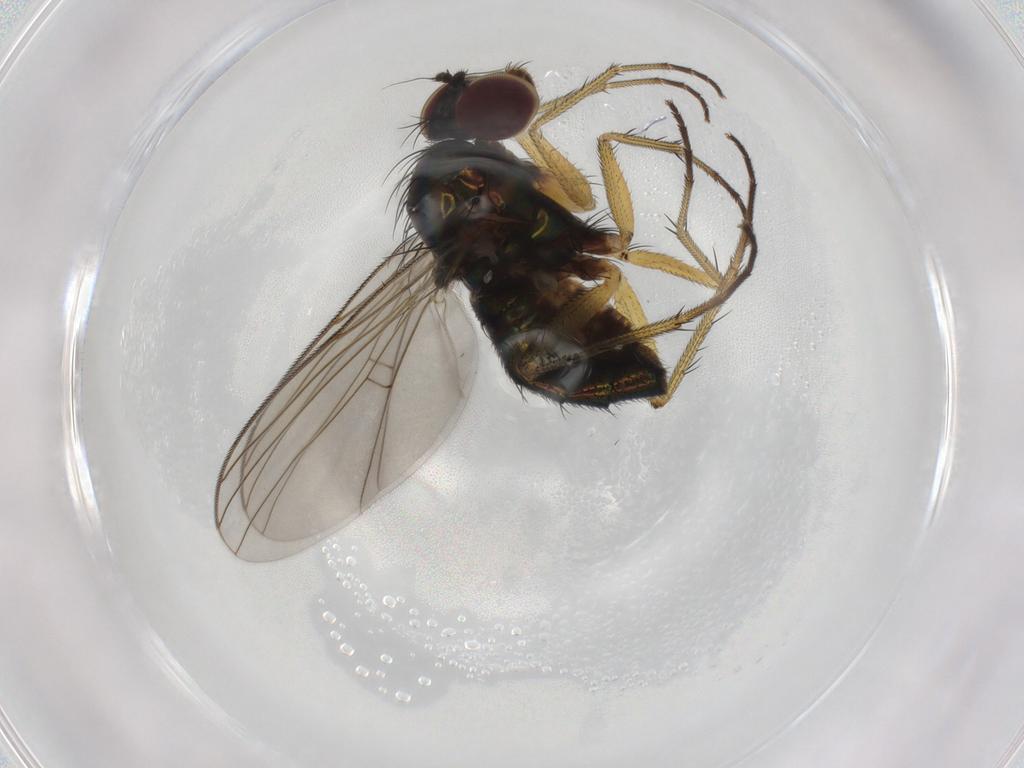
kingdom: Animalia
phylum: Arthropoda
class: Insecta
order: Diptera
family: Dolichopodidae
